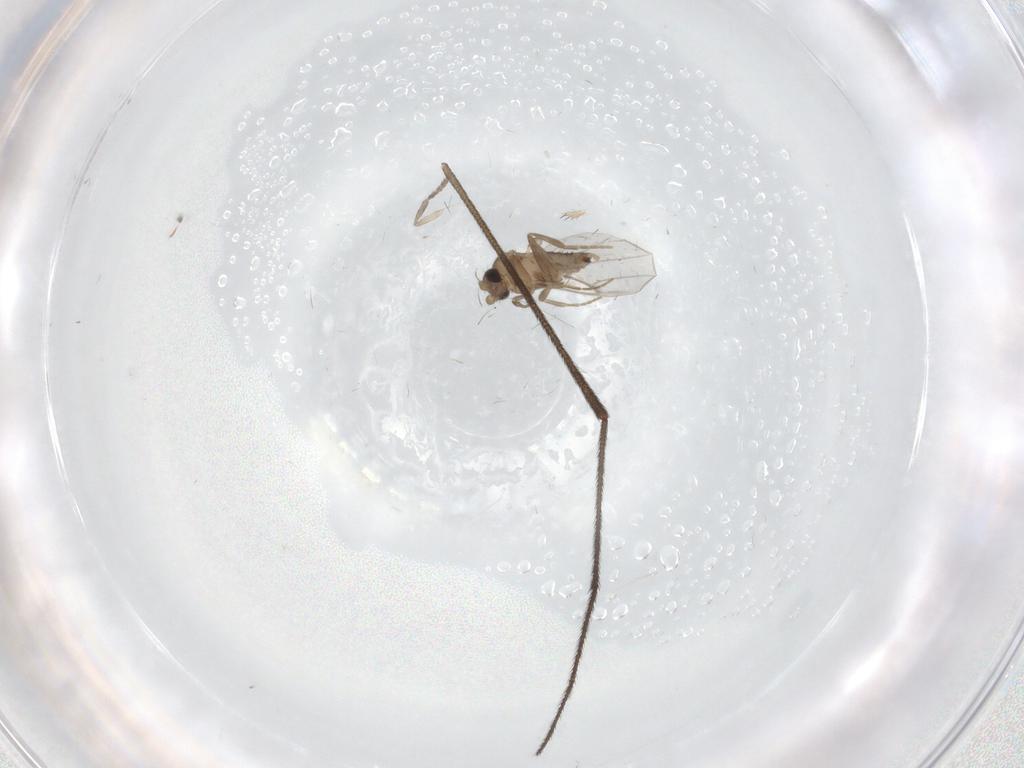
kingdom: Animalia
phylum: Arthropoda
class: Insecta
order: Diptera
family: Psychodidae
